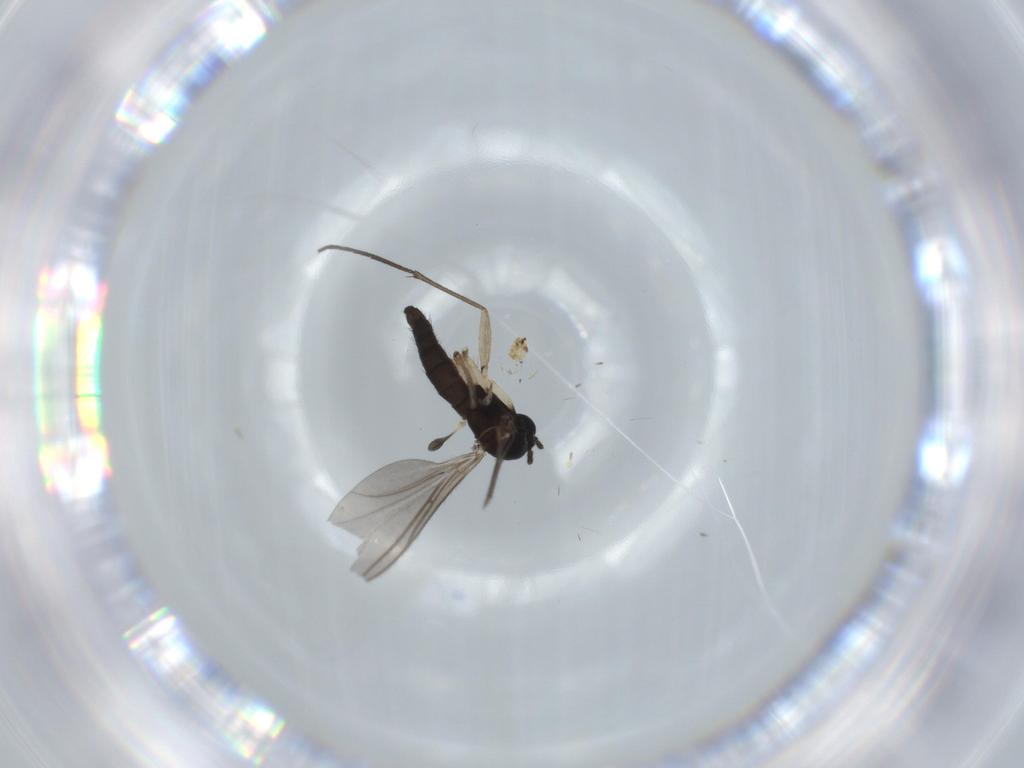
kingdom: Animalia
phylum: Arthropoda
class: Insecta
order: Diptera
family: Sciaridae
